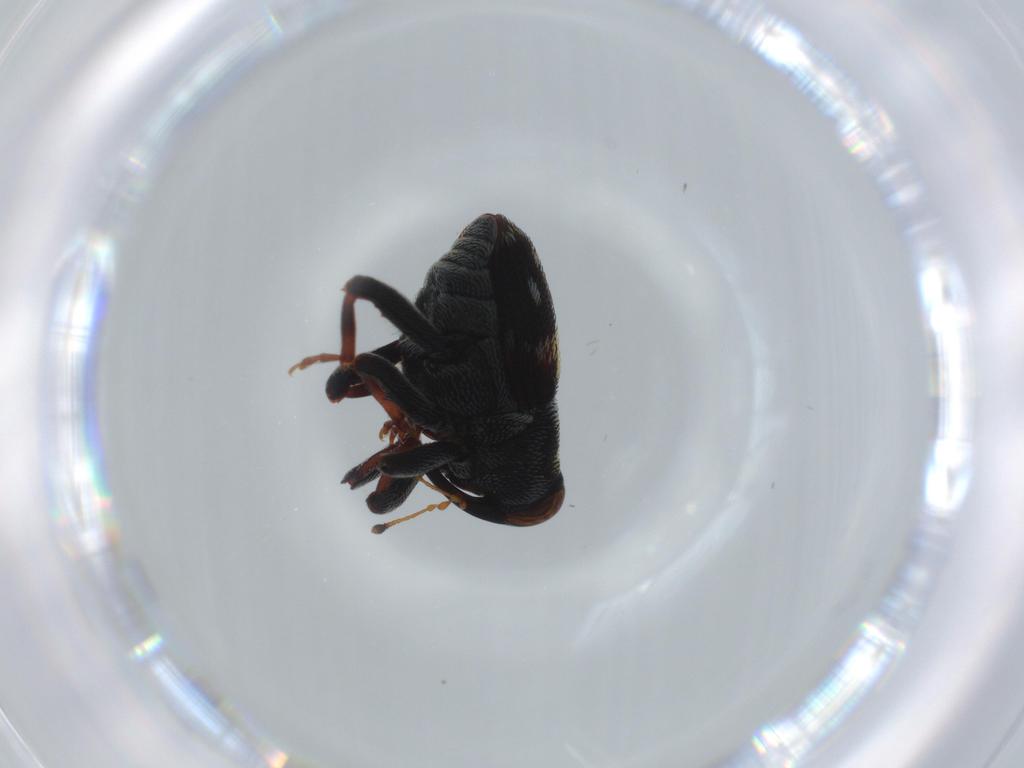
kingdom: Animalia
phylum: Arthropoda
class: Insecta
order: Coleoptera
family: Curculionidae
